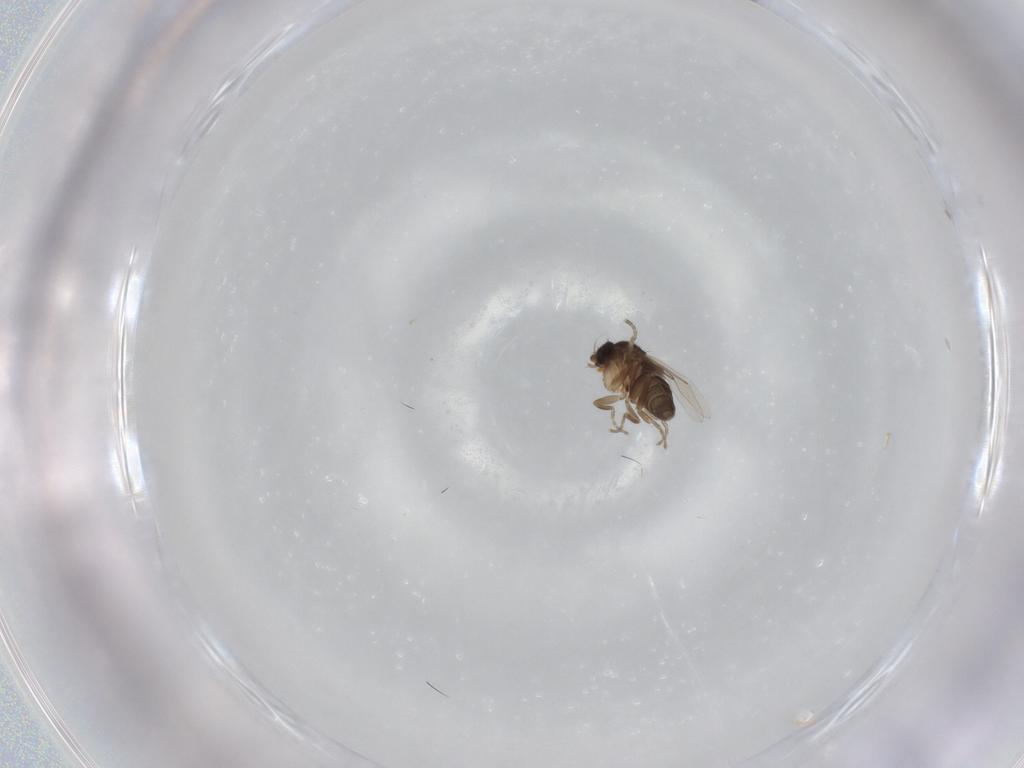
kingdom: Animalia
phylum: Arthropoda
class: Insecta
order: Diptera
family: Phoridae
